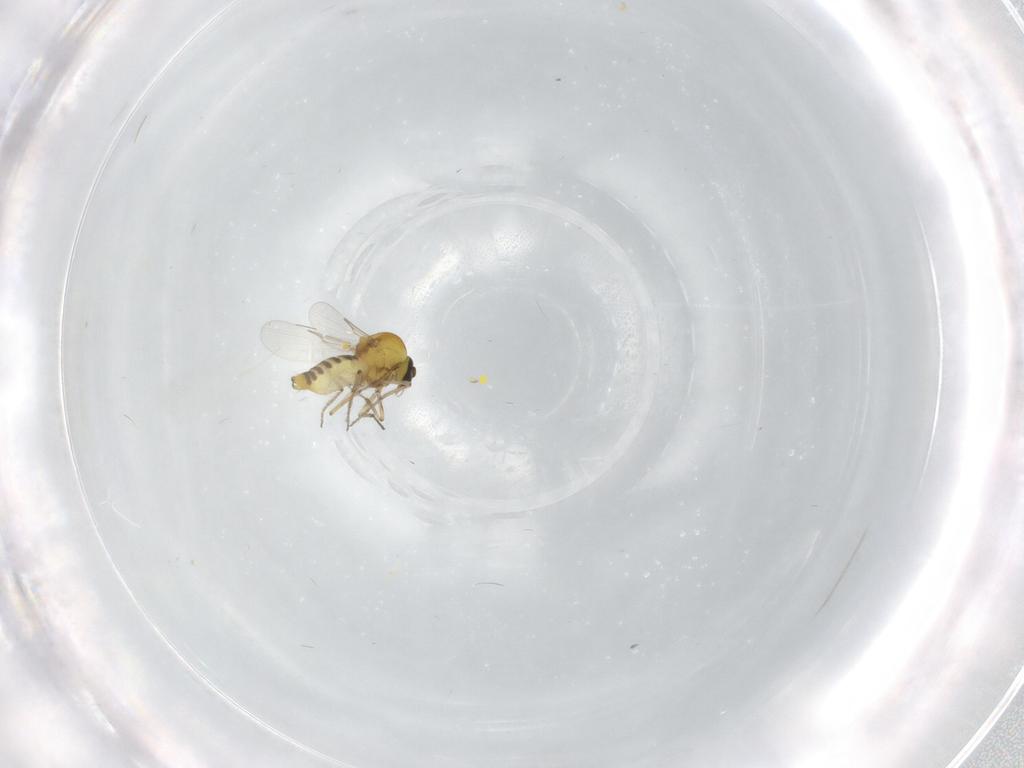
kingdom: Animalia
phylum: Arthropoda
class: Insecta
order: Diptera
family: Ceratopogonidae
